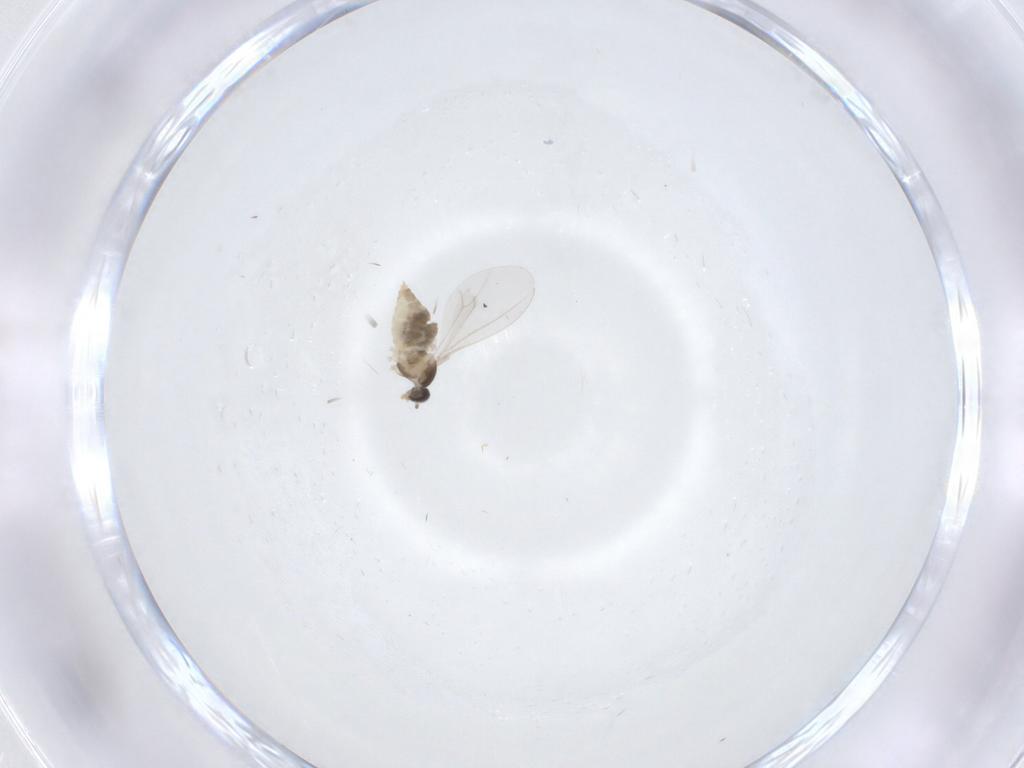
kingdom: Animalia
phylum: Arthropoda
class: Insecta
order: Diptera
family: Cecidomyiidae
